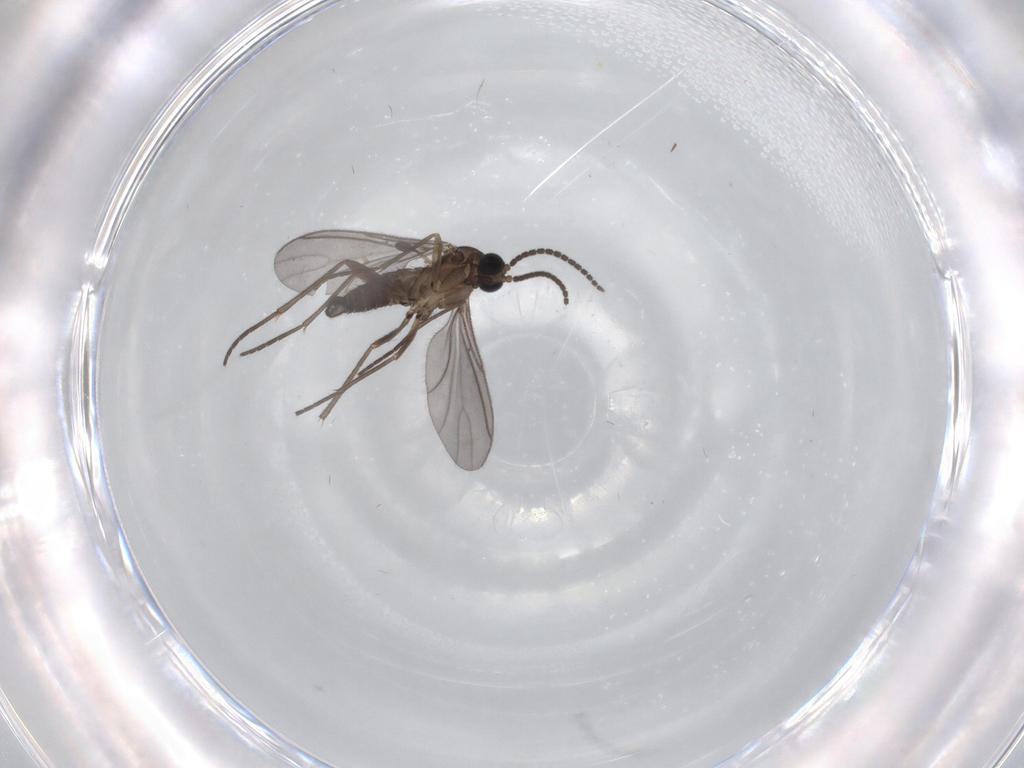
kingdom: Animalia
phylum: Arthropoda
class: Insecta
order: Diptera
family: Sciaridae
